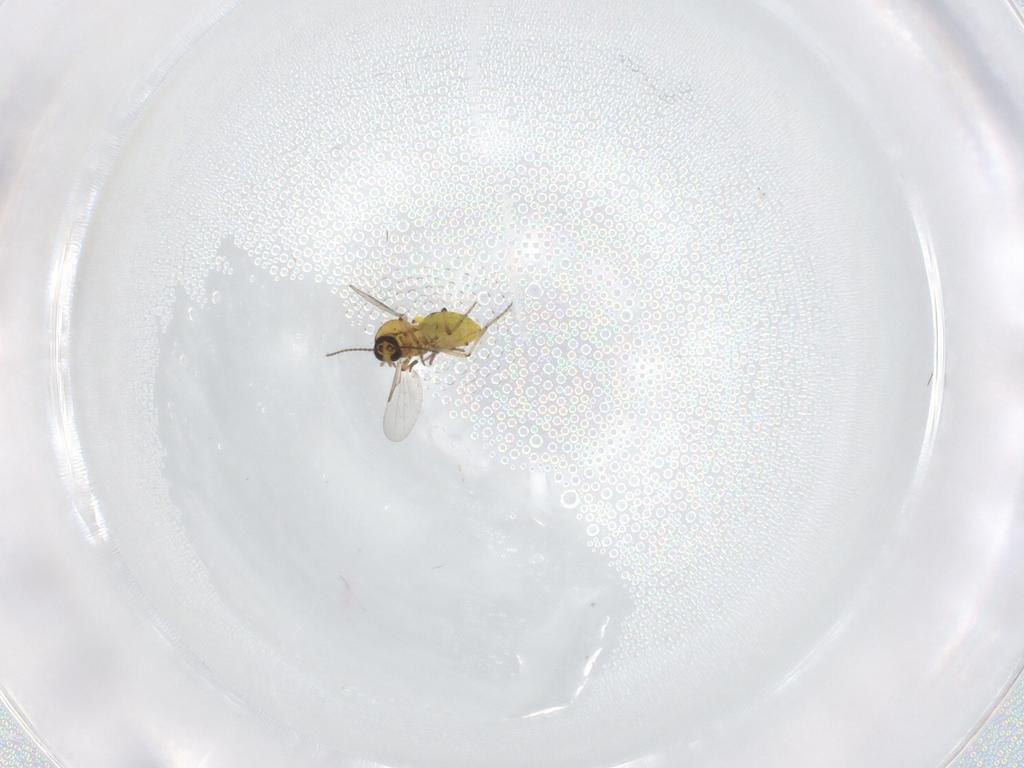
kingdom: Animalia
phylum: Arthropoda
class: Insecta
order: Diptera
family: Ceratopogonidae
